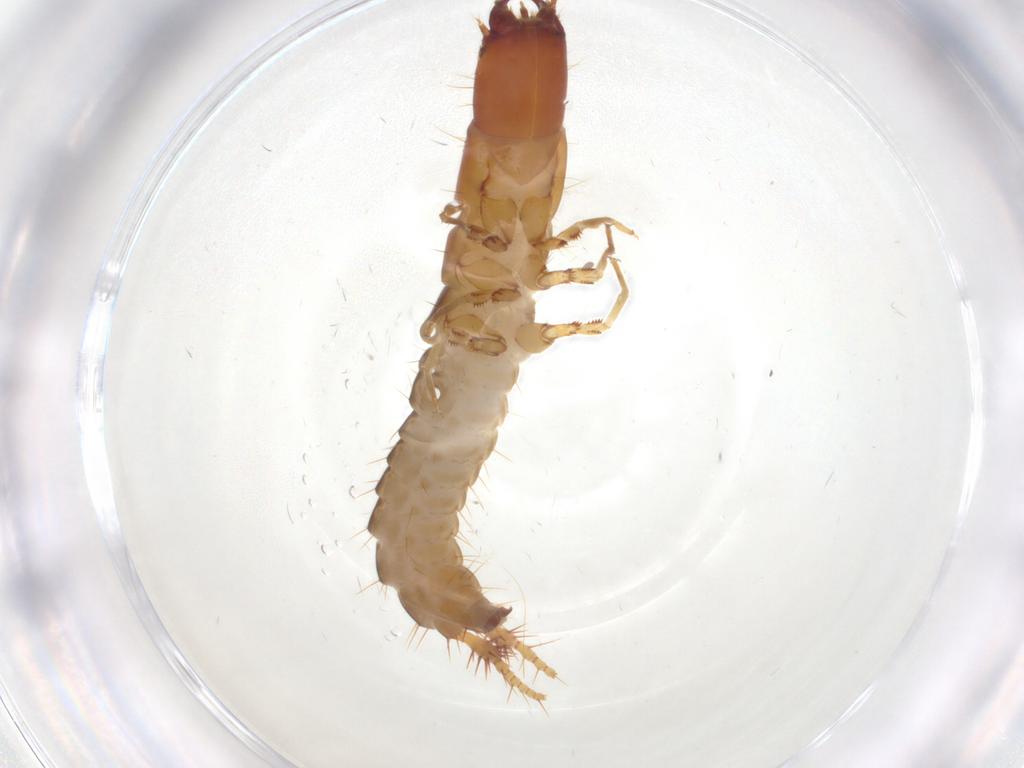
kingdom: Animalia
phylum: Arthropoda
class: Insecta
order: Coleoptera
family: Carabidae
